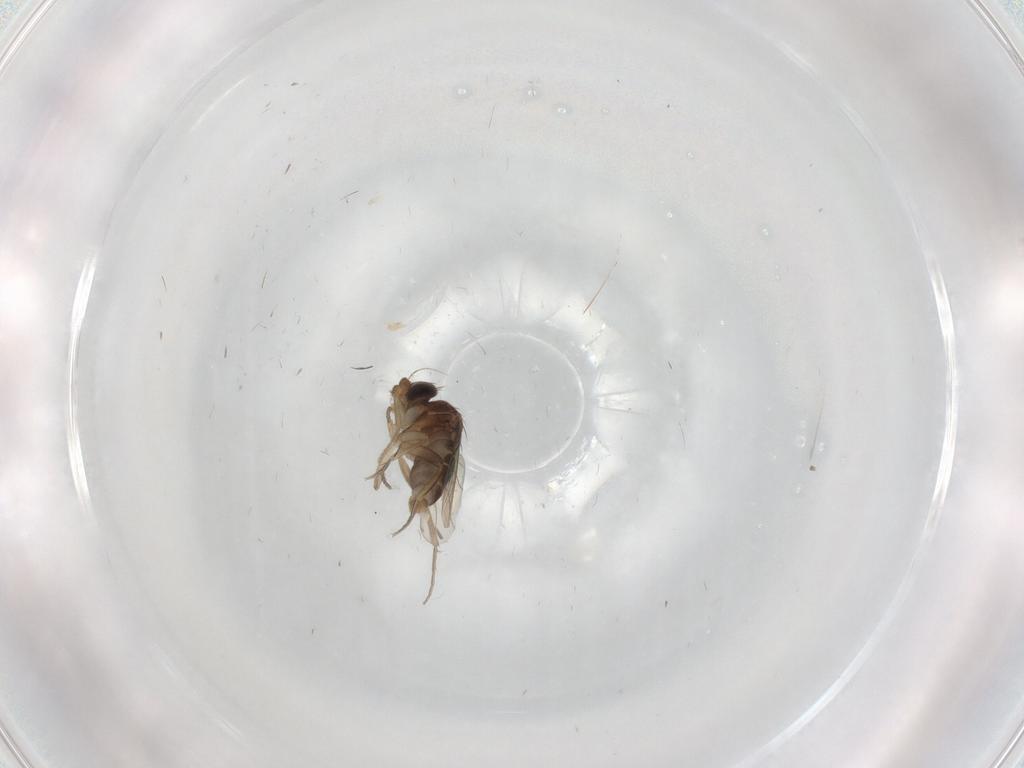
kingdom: Animalia
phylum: Arthropoda
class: Insecta
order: Diptera
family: Psychodidae
